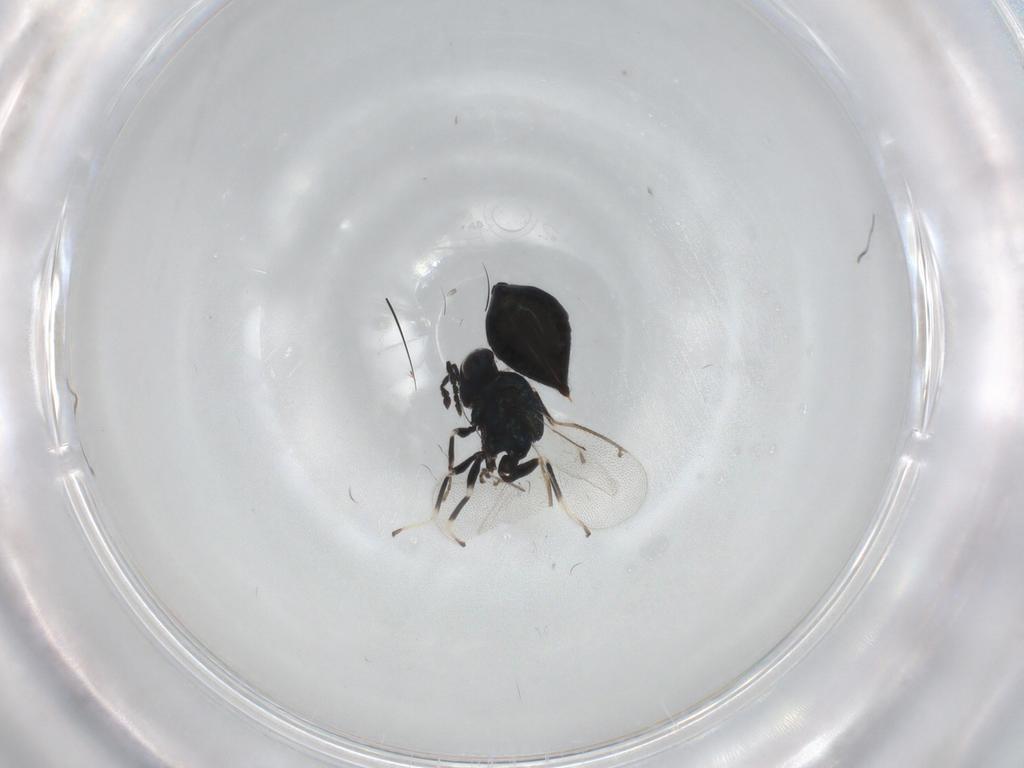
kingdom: Animalia
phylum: Arthropoda
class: Insecta
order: Hymenoptera
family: Eulophidae
